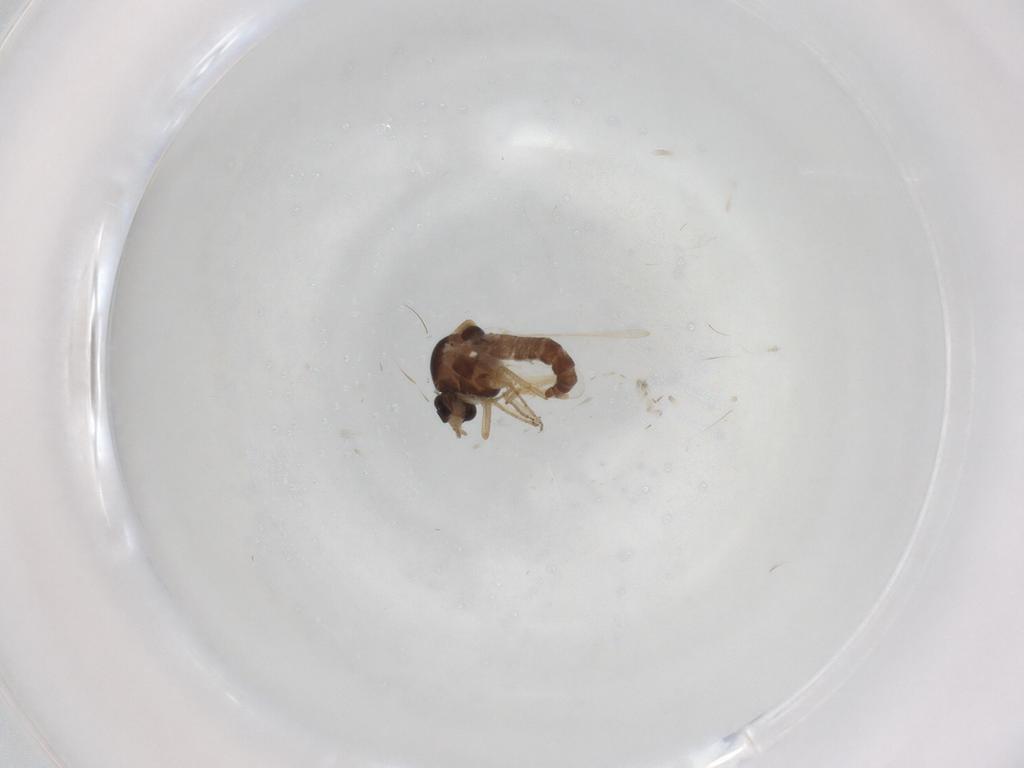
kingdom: Animalia
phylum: Arthropoda
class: Insecta
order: Diptera
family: Ceratopogonidae
